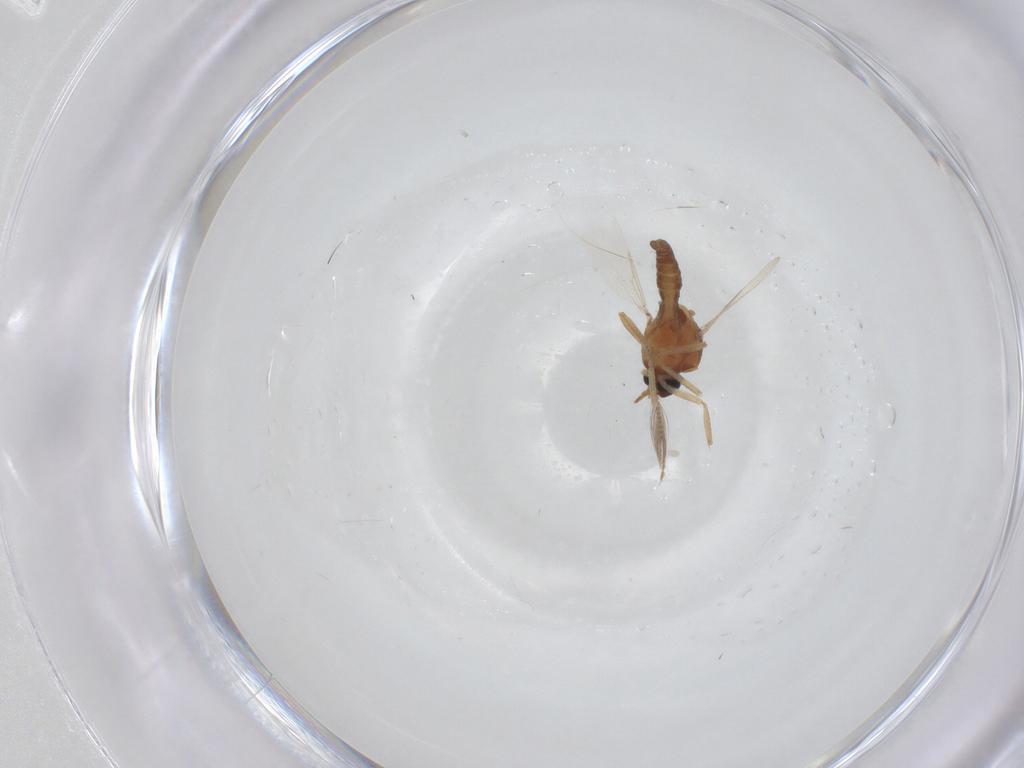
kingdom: Animalia
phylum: Arthropoda
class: Insecta
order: Diptera
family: Ceratopogonidae
